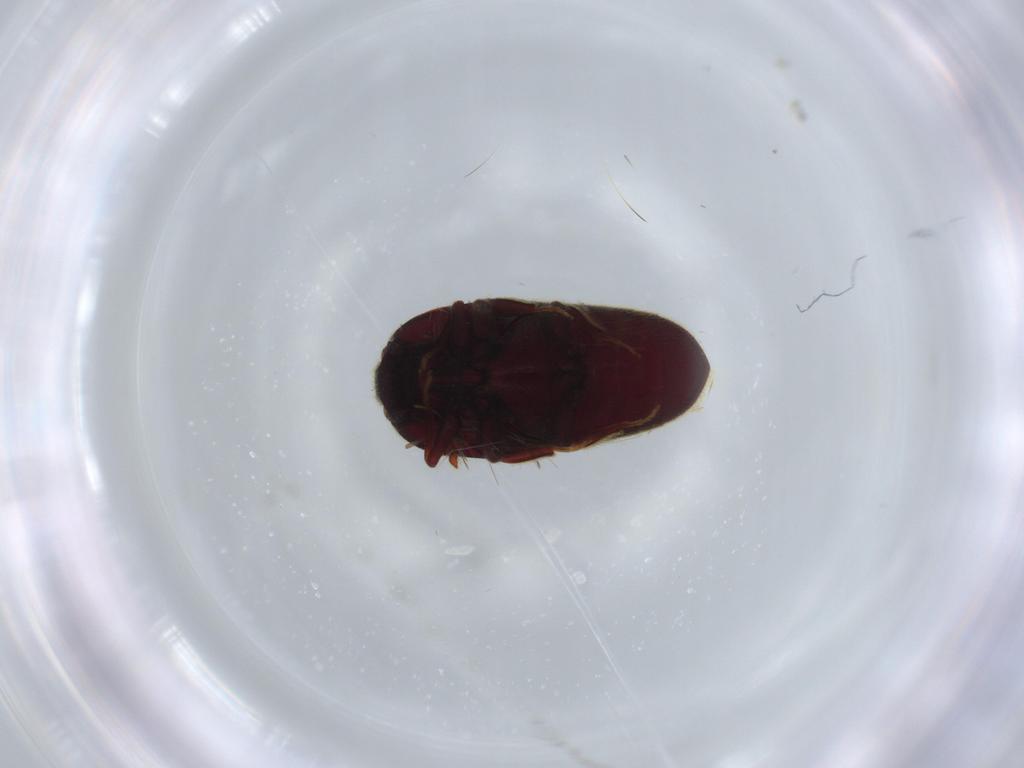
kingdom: Animalia
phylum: Arthropoda
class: Insecta
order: Coleoptera
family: Throscidae
